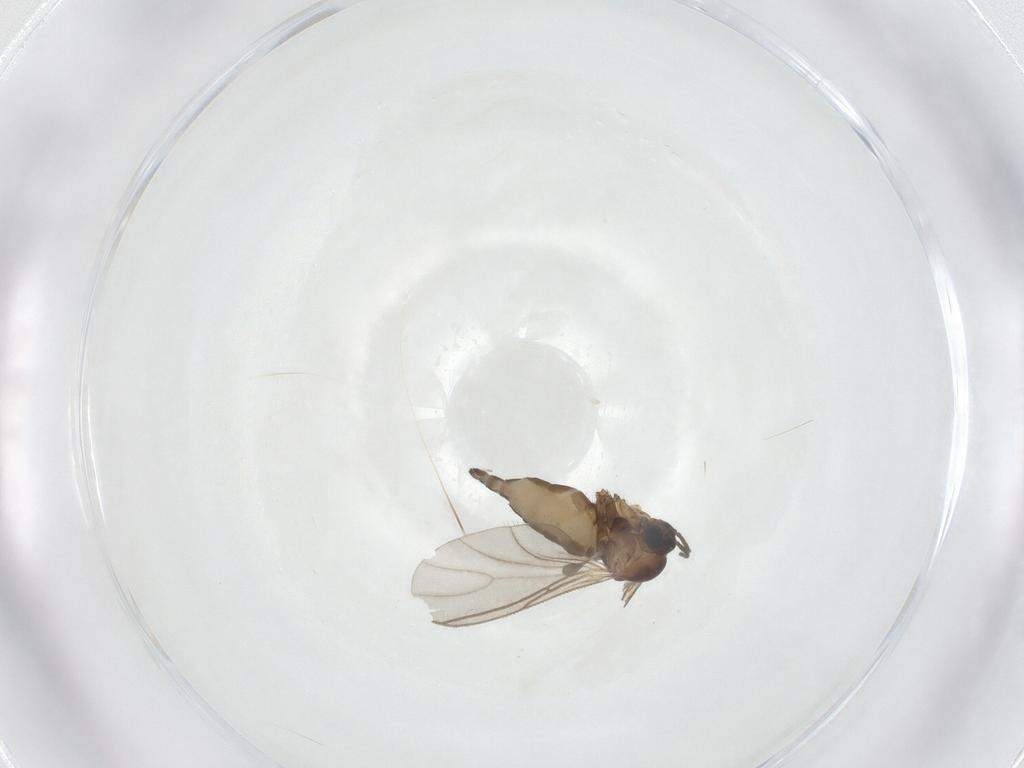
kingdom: Animalia
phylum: Arthropoda
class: Insecta
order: Diptera
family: Sciaridae
